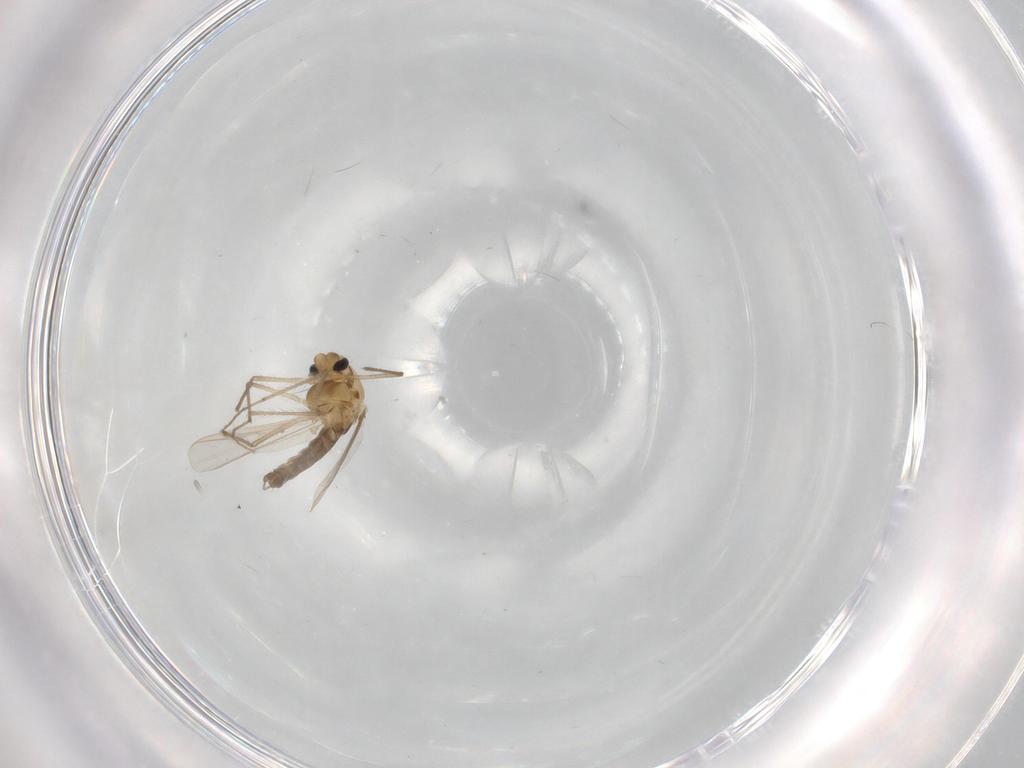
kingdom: Animalia
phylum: Arthropoda
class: Insecta
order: Diptera
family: Chironomidae
